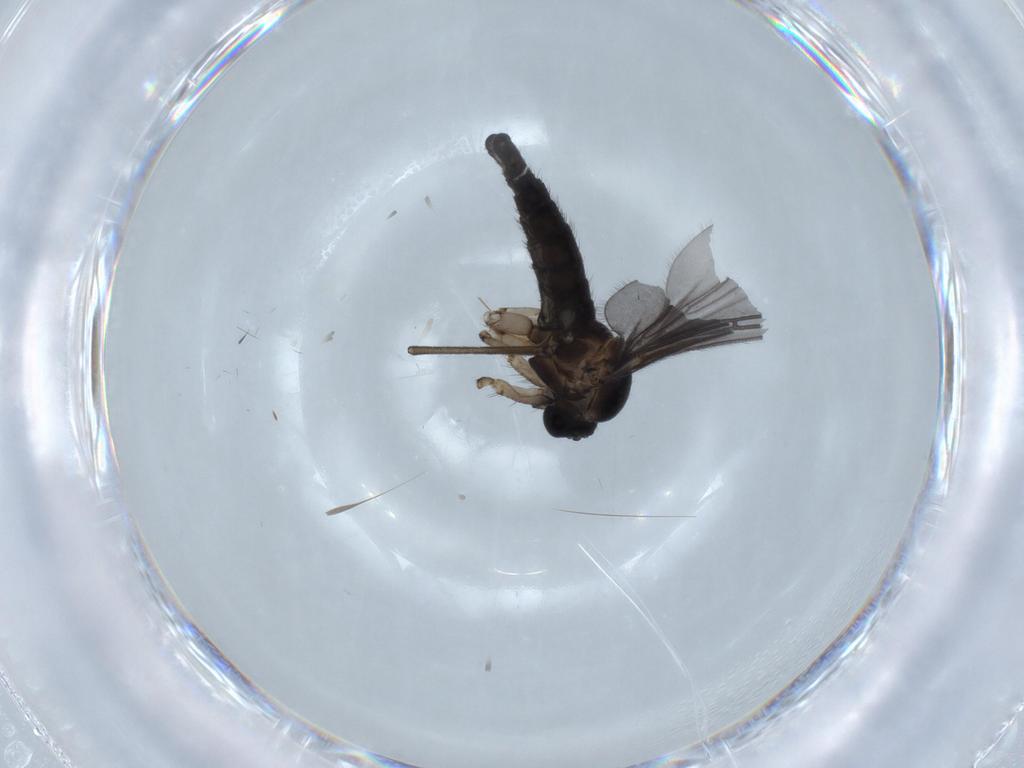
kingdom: Animalia
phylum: Arthropoda
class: Insecta
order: Diptera
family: Sciaridae
